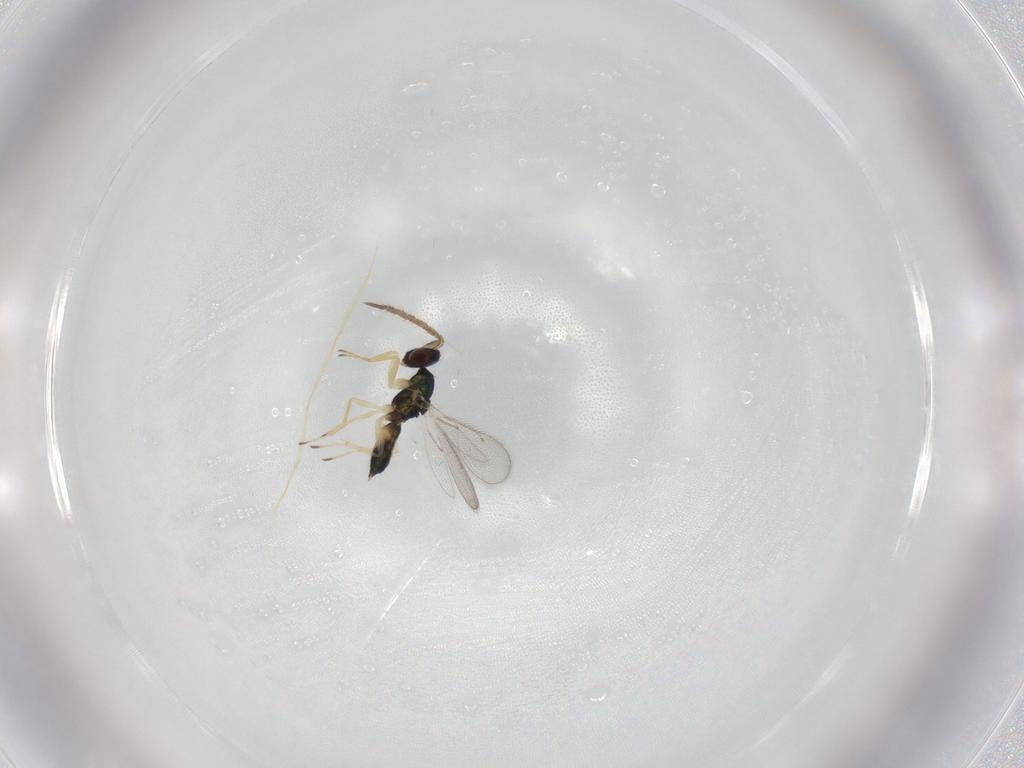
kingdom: Animalia
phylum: Arthropoda
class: Insecta
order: Hymenoptera
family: Eulophidae
